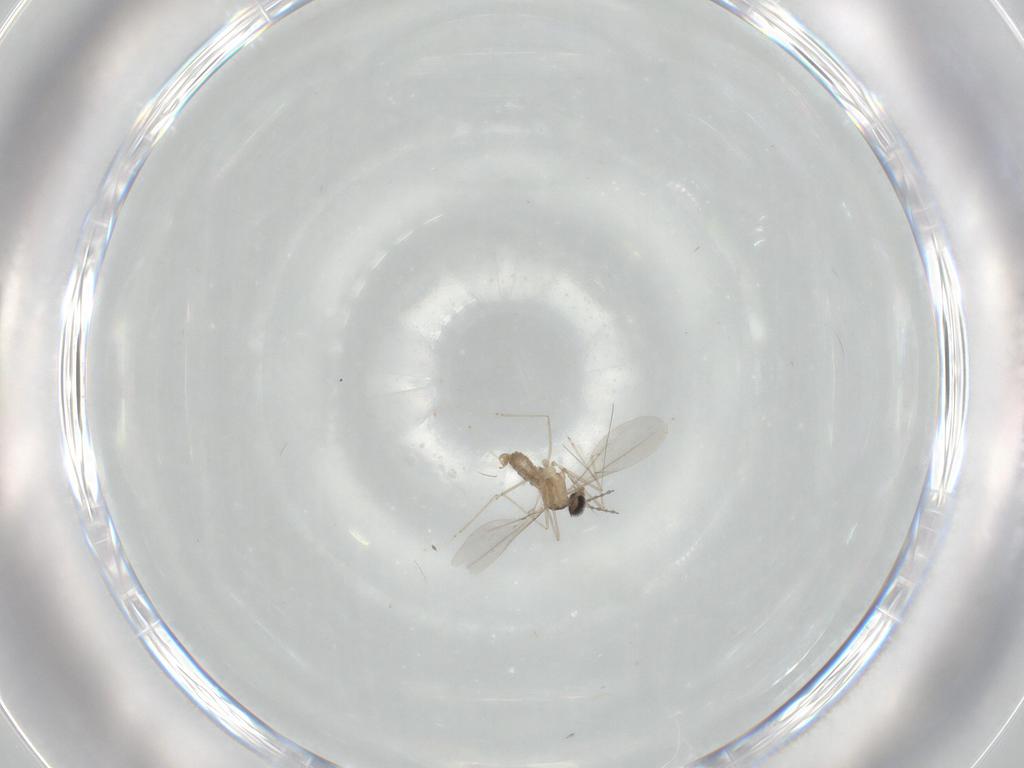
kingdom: Animalia
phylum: Arthropoda
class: Insecta
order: Diptera
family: Cecidomyiidae
